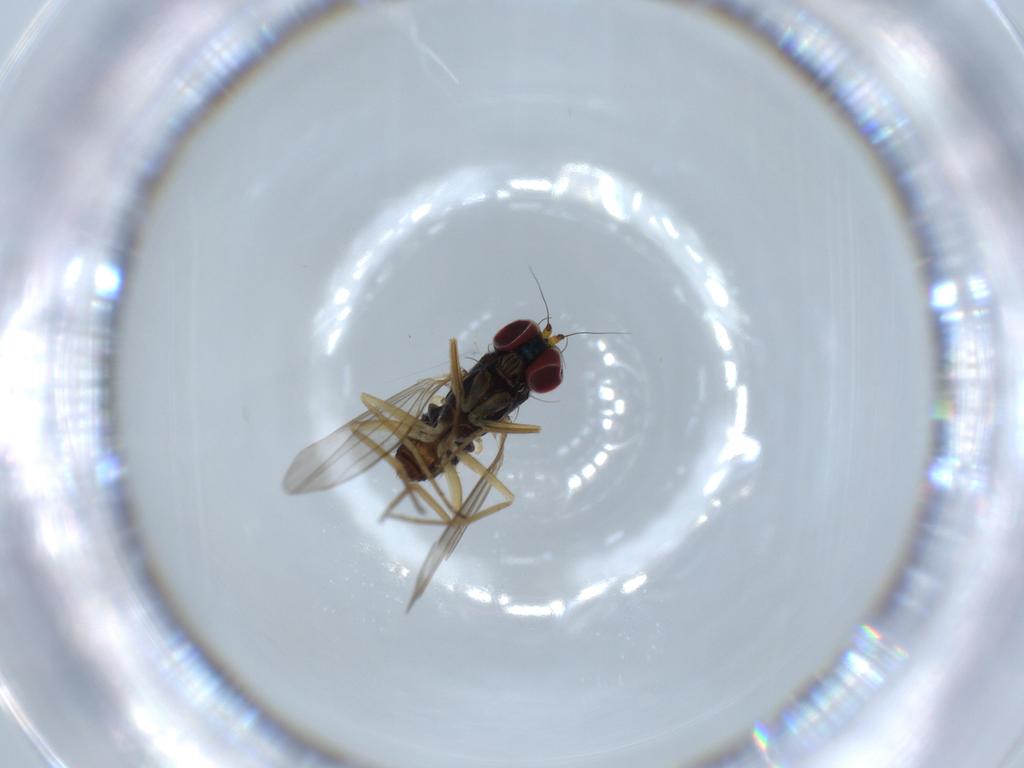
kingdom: Animalia
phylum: Arthropoda
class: Insecta
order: Diptera
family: Dolichopodidae
